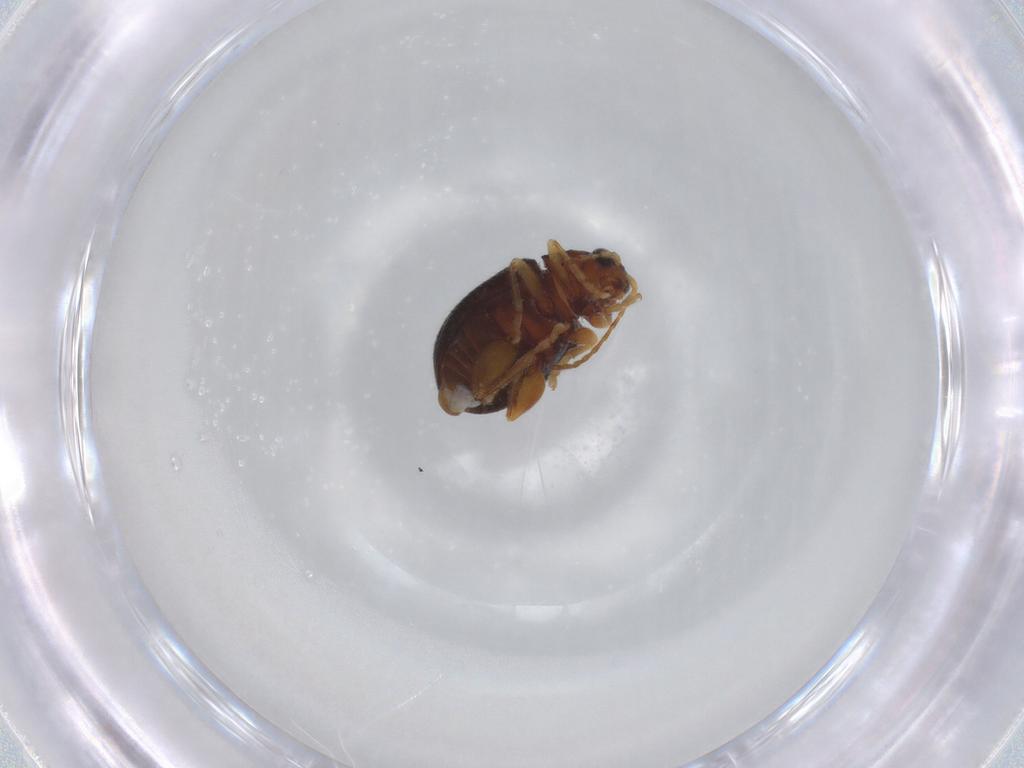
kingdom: Animalia
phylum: Arthropoda
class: Insecta
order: Coleoptera
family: Chrysomelidae
